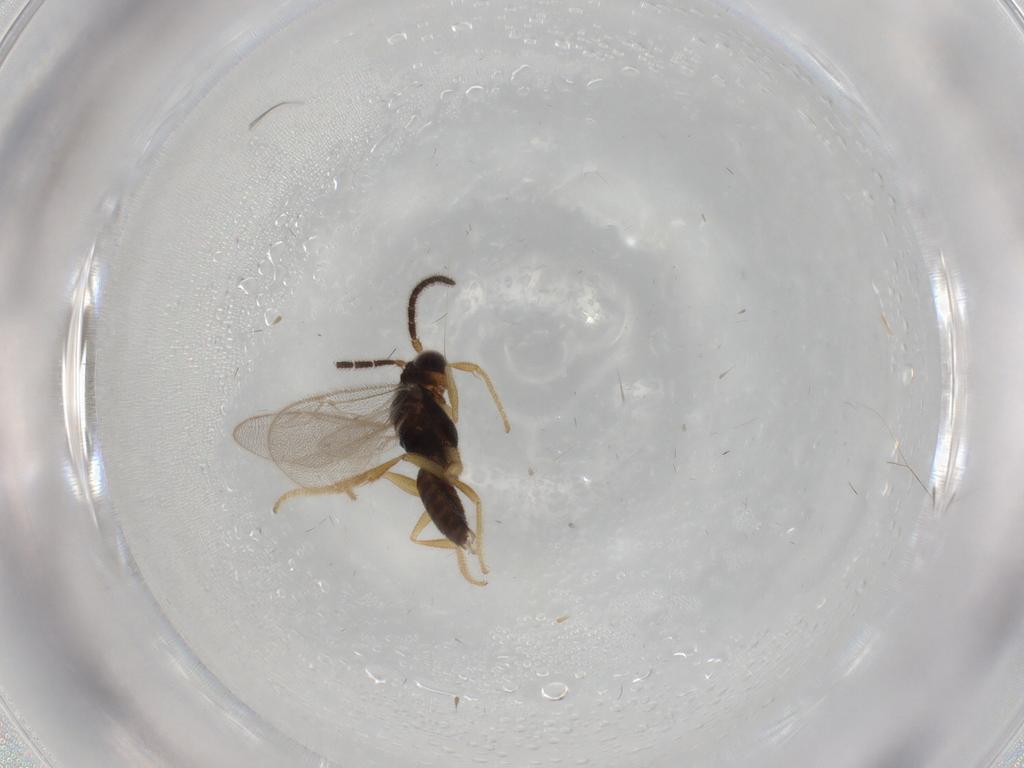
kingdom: Animalia
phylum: Arthropoda
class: Insecta
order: Hymenoptera
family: Dryinidae
